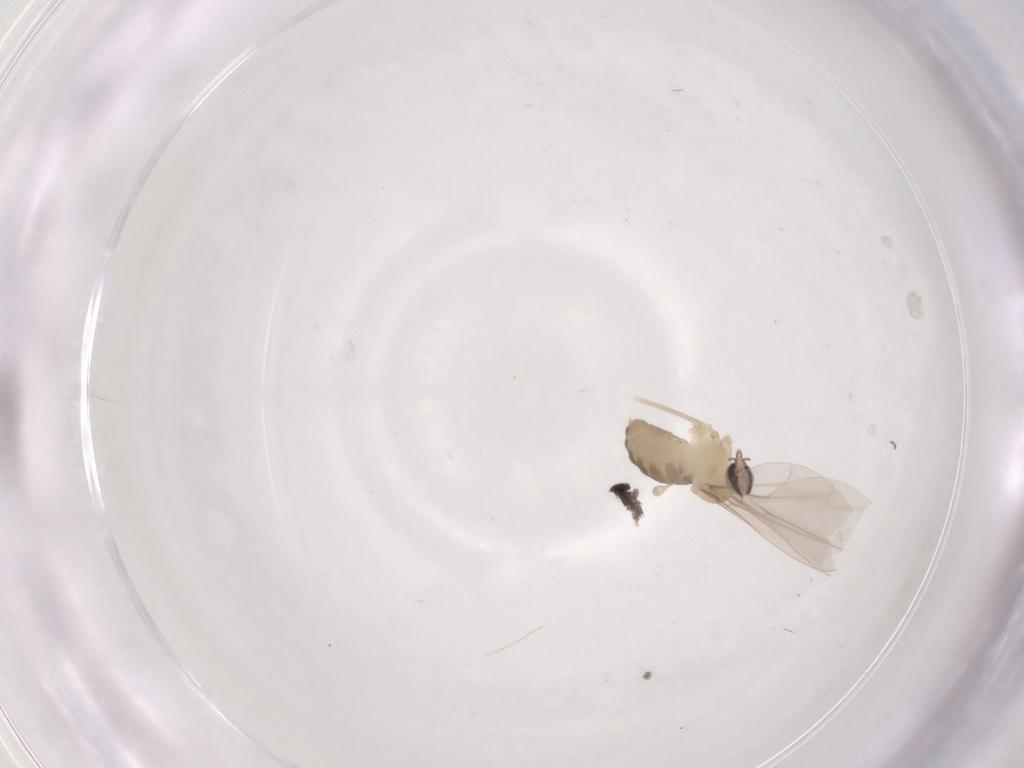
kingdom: Animalia
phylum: Arthropoda
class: Insecta
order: Diptera
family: Cecidomyiidae
